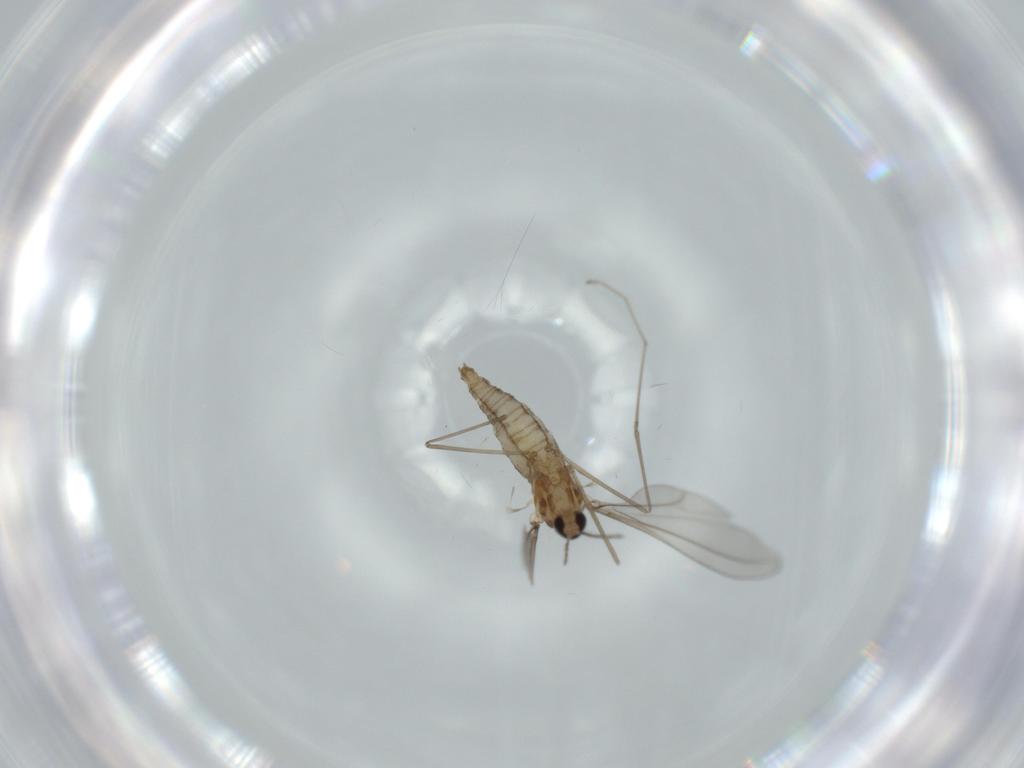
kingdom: Animalia
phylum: Arthropoda
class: Insecta
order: Diptera
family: Cecidomyiidae
